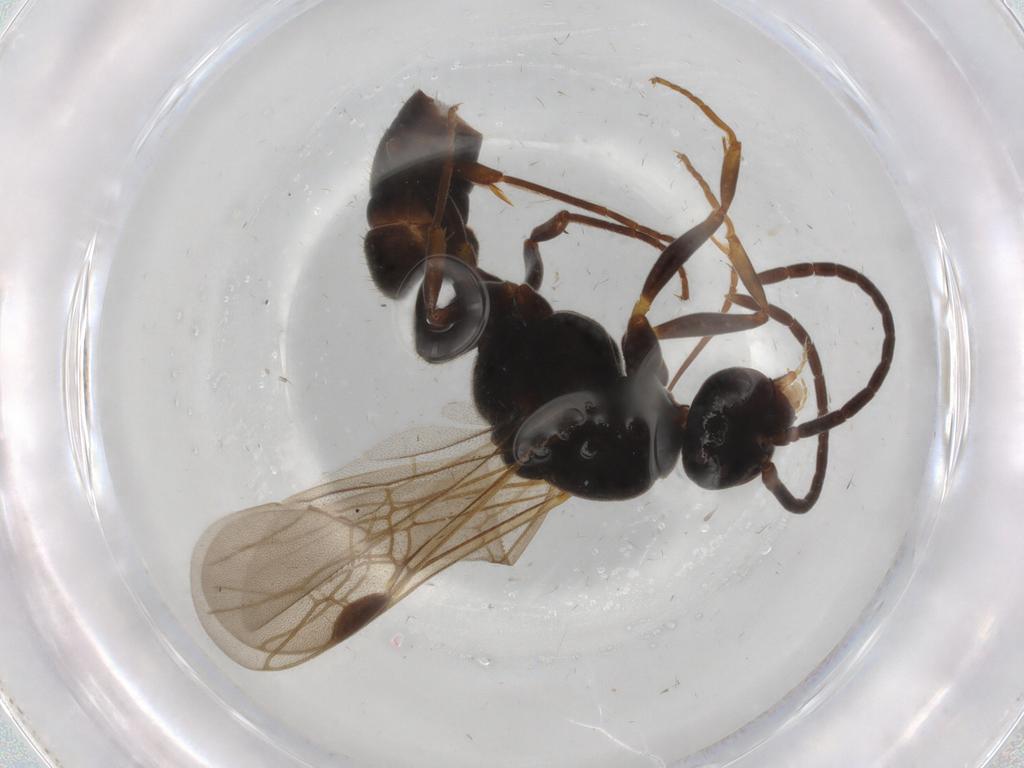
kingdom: Animalia
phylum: Arthropoda
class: Insecta
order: Hymenoptera
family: Formicidae
